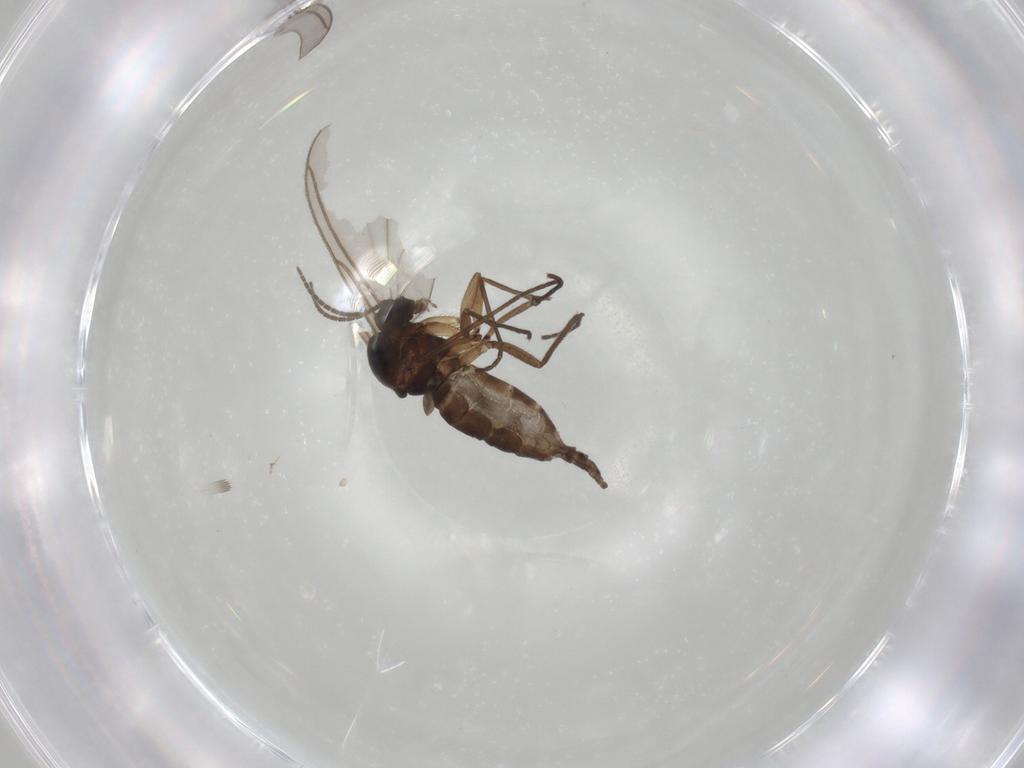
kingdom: Animalia
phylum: Arthropoda
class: Insecta
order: Diptera
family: Sciaridae
